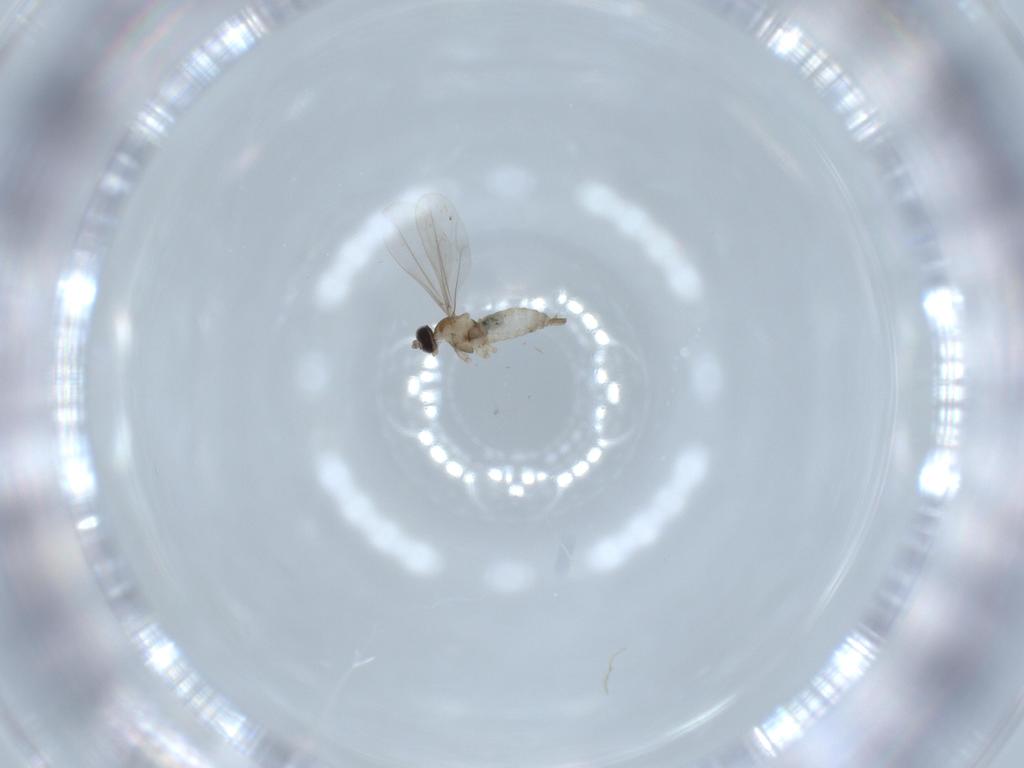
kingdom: Animalia
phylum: Arthropoda
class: Insecta
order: Diptera
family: Cecidomyiidae
